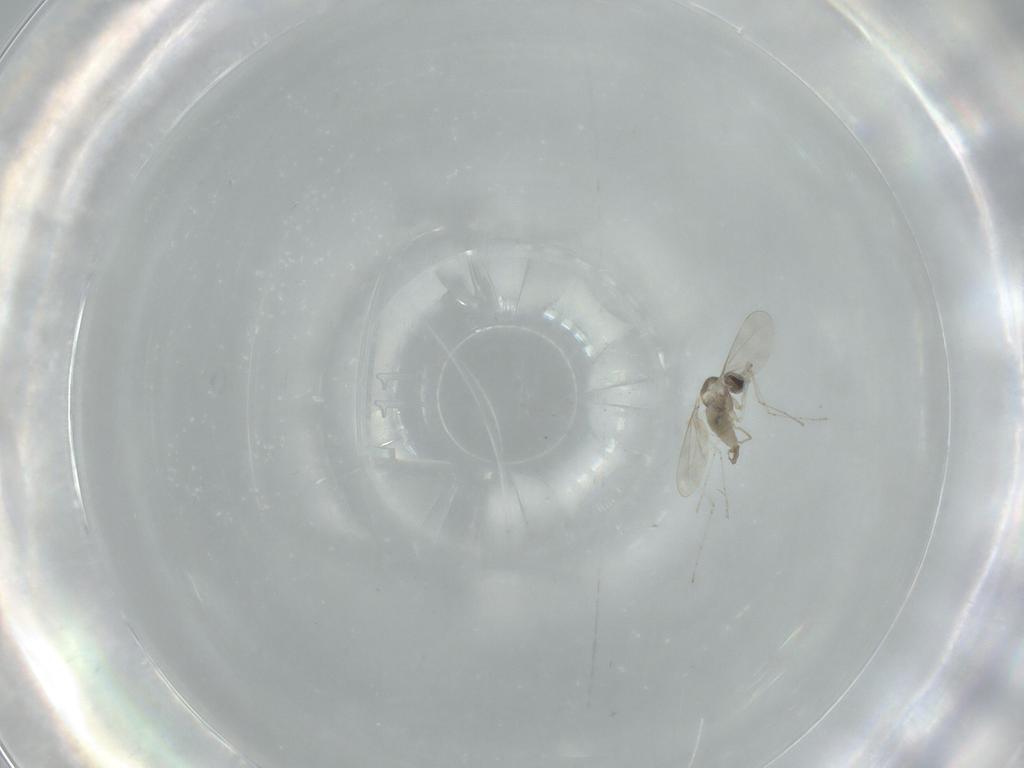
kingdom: Animalia
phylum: Arthropoda
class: Insecta
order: Diptera
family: Phoridae
